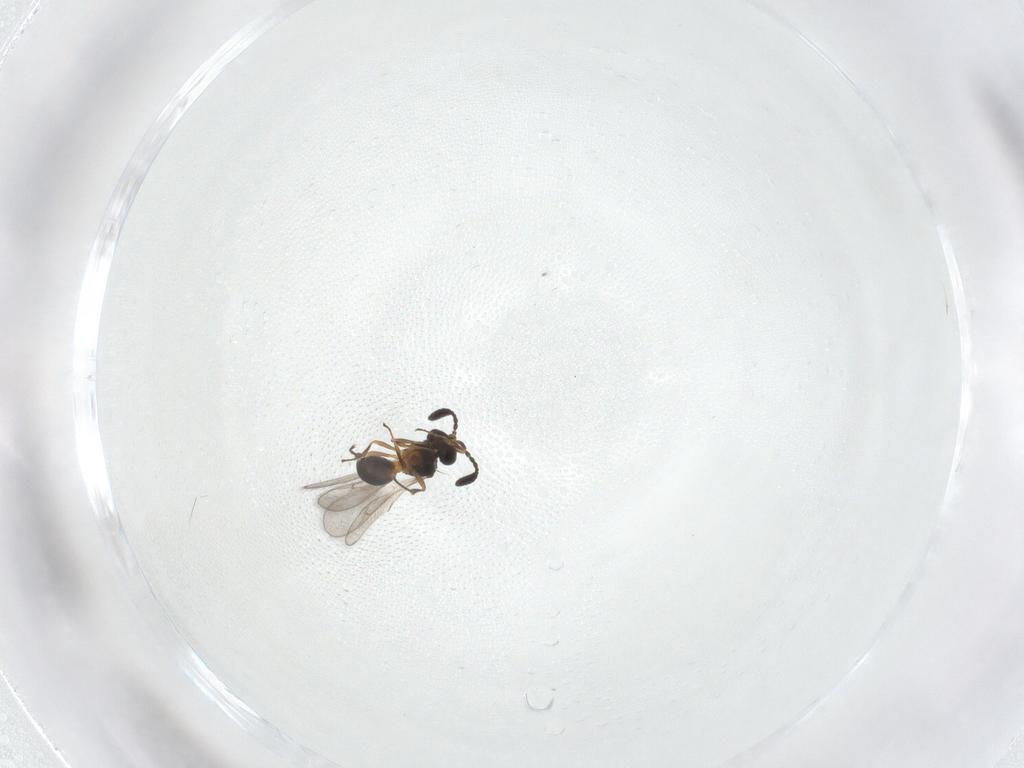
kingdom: Animalia
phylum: Arthropoda
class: Insecta
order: Hymenoptera
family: Scelionidae
